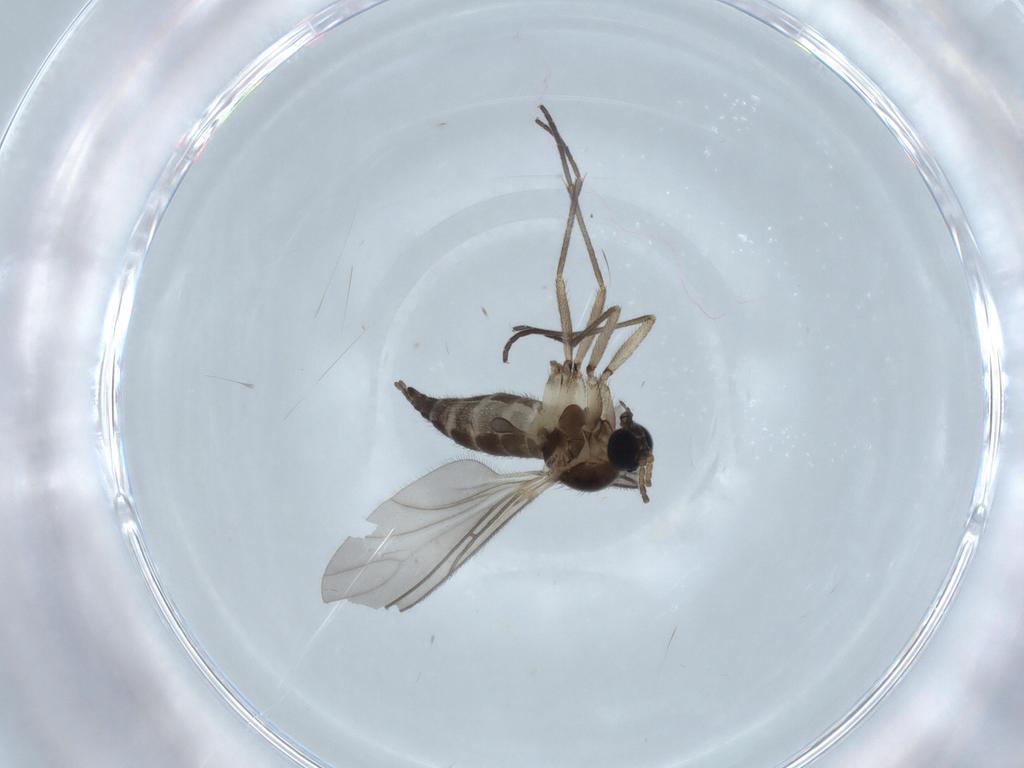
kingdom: Animalia
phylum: Arthropoda
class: Insecta
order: Diptera
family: Sciaridae
